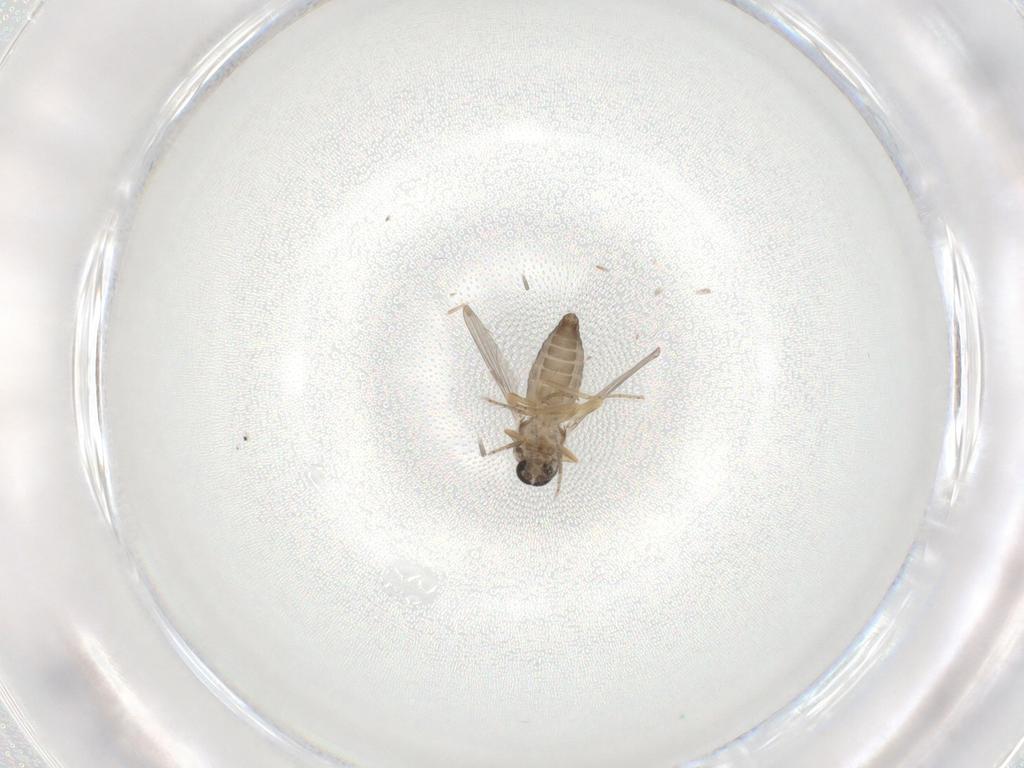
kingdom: Animalia
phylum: Arthropoda
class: Insecta
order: Diptera
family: Ceratopogonidae
